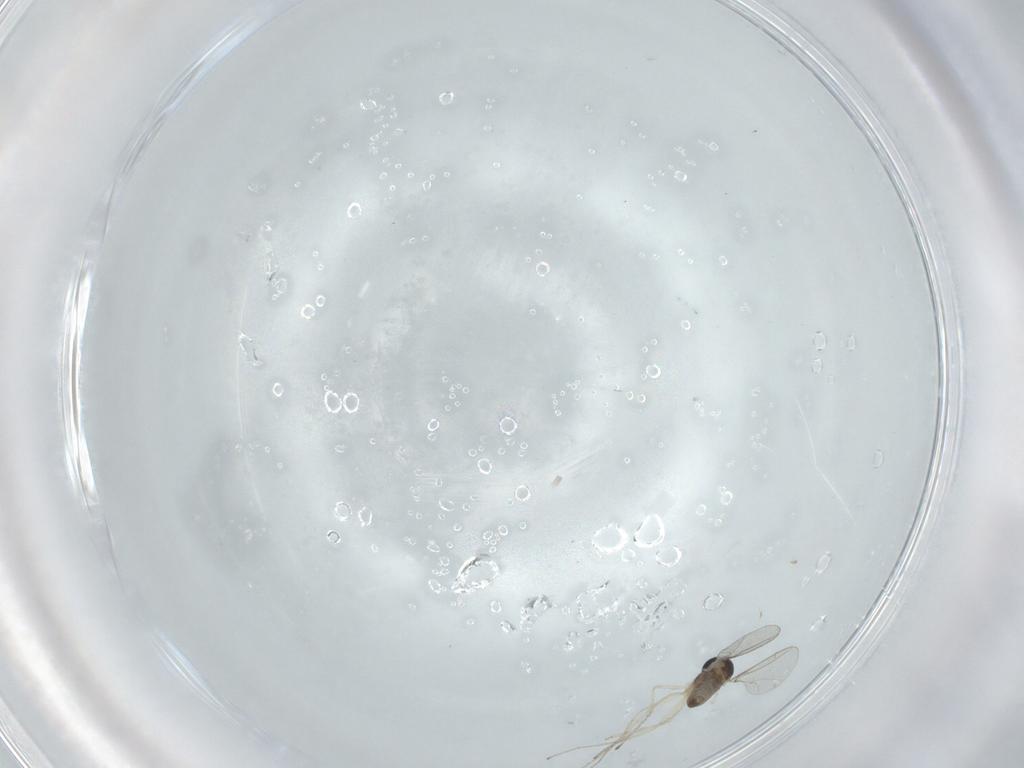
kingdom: Animalia
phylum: Arthropoda
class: Insecta
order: Diptera
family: Cecidomyiidae
